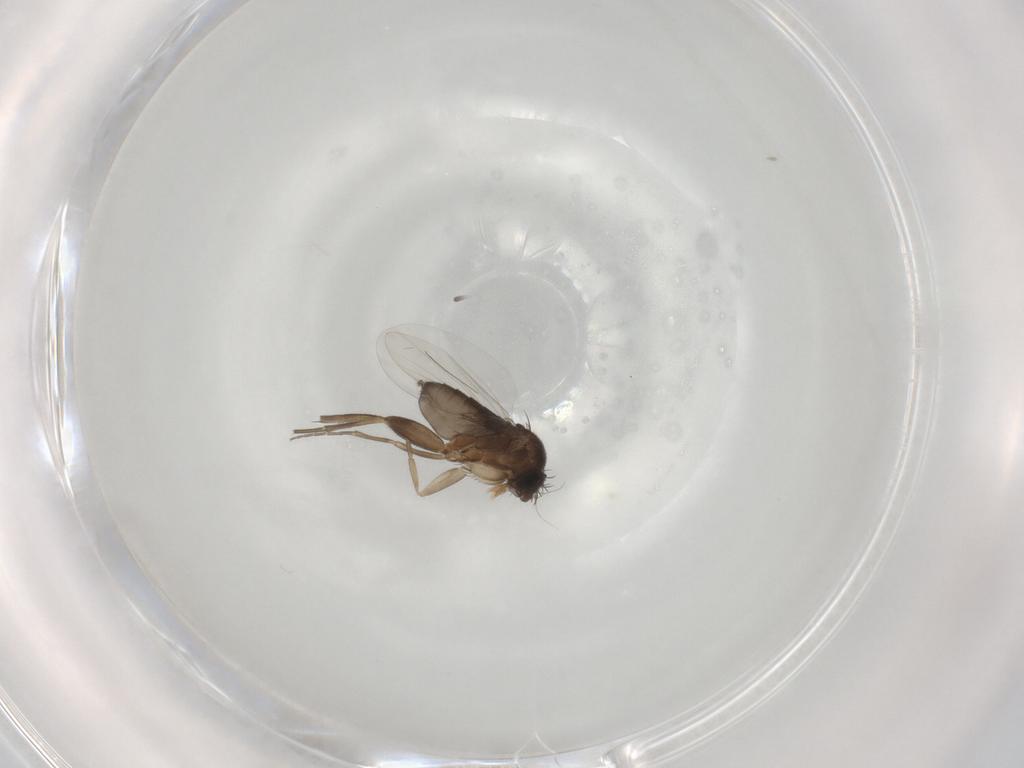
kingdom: Animalia
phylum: Arthropoda
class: Insecta
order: Diptera
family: Phoridae
